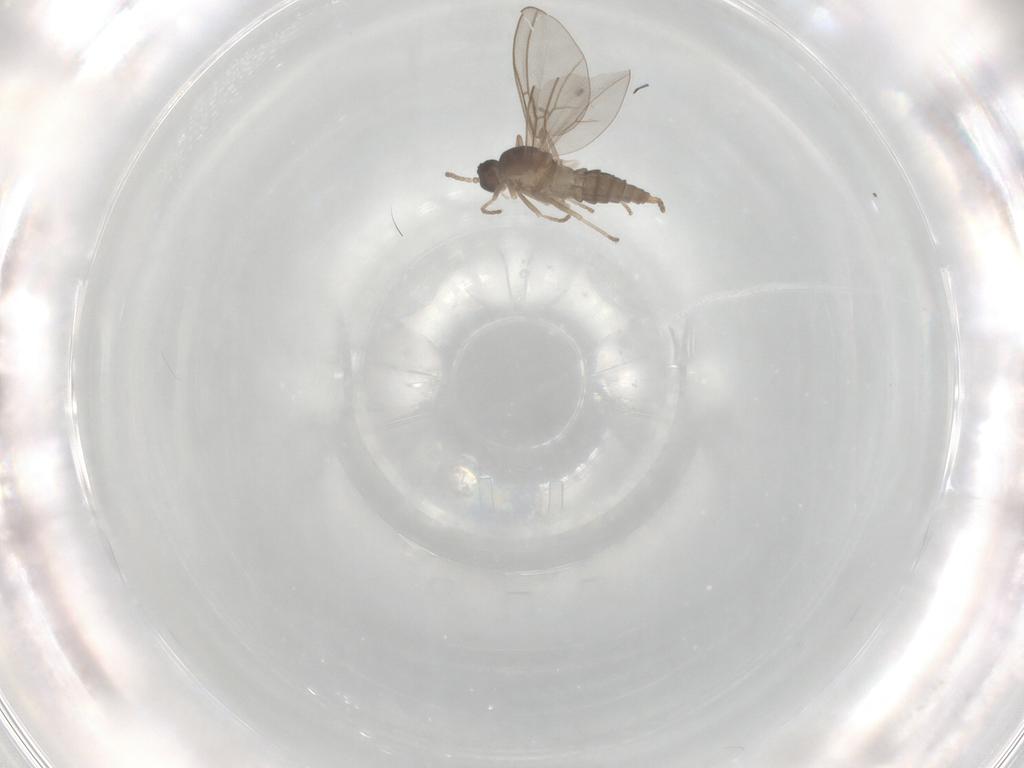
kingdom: Animalia
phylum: Arthropoda
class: Insecta
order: Diptera
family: Cecidomyiidae
